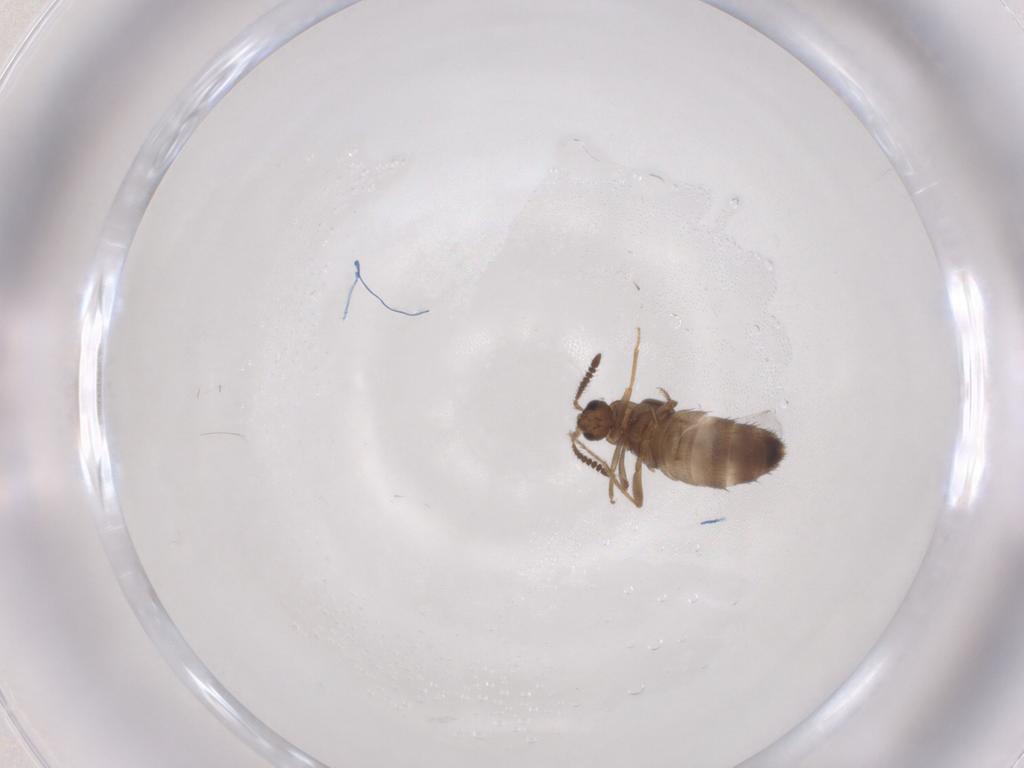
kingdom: Animalia
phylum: Arthropoda
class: Insecta
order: Coleoptera
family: Staphylinidae
